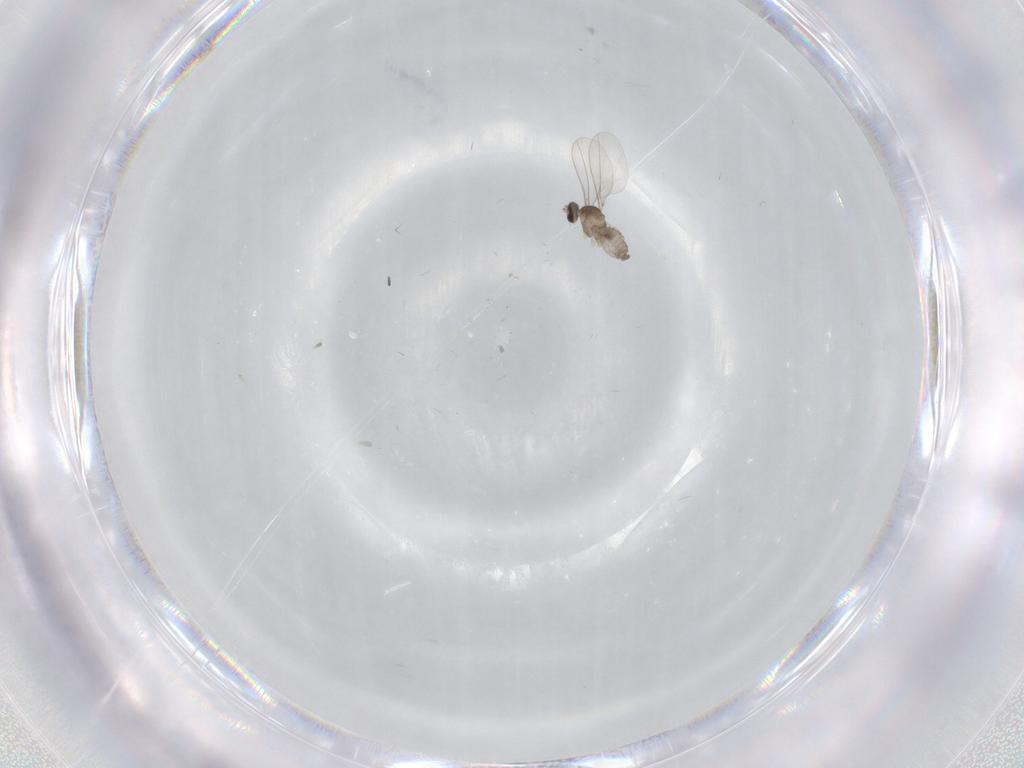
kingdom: Animalia
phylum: Arthropoda
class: Insecta
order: Diptera
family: Cecidomyiidae
